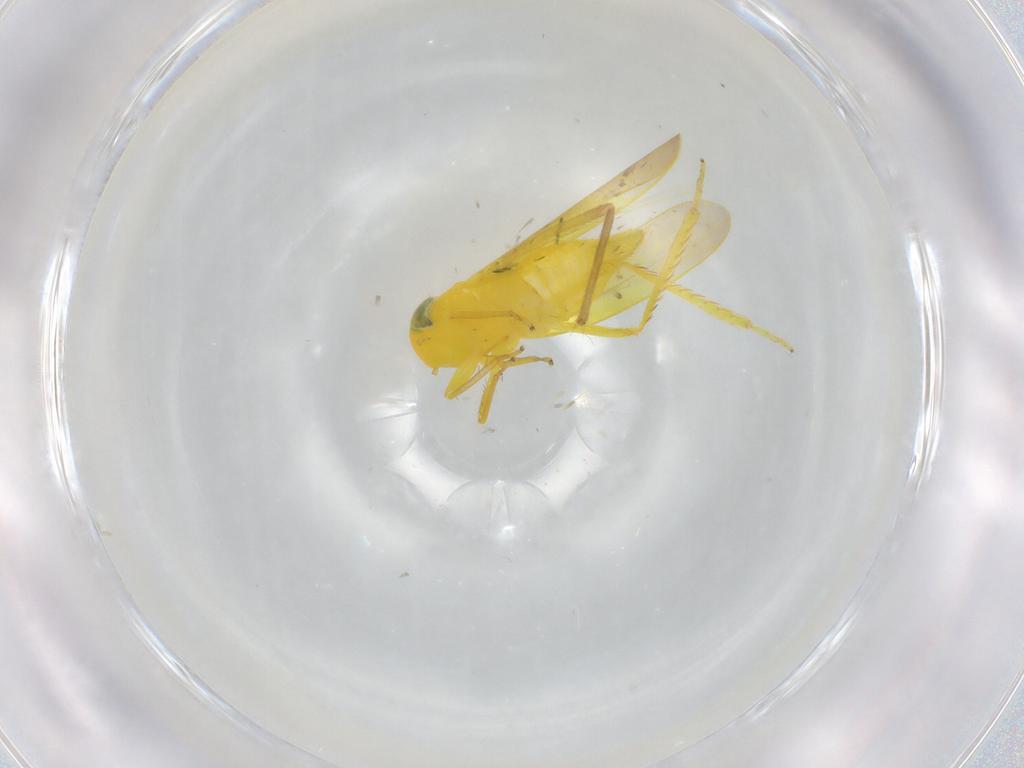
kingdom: Animalia
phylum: Arthropoda
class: Insecta
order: Hemiptera
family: Cicadellidae
